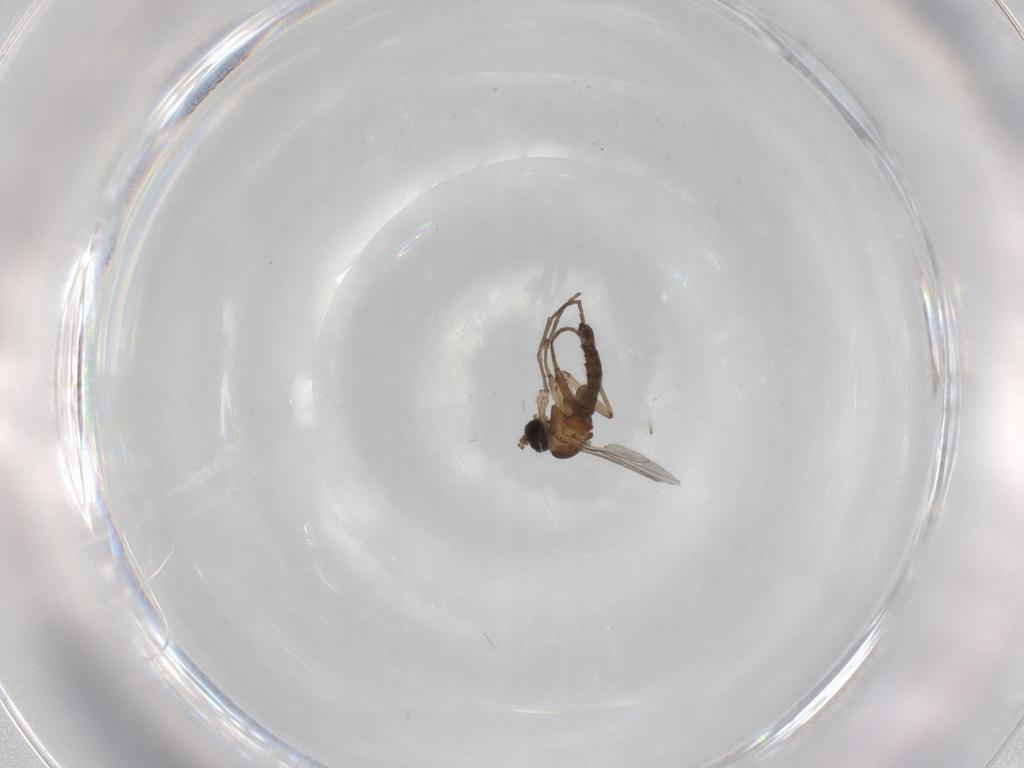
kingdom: Animalia
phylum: Arthropoda
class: Insecta
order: Diptera
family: Sciaridae
